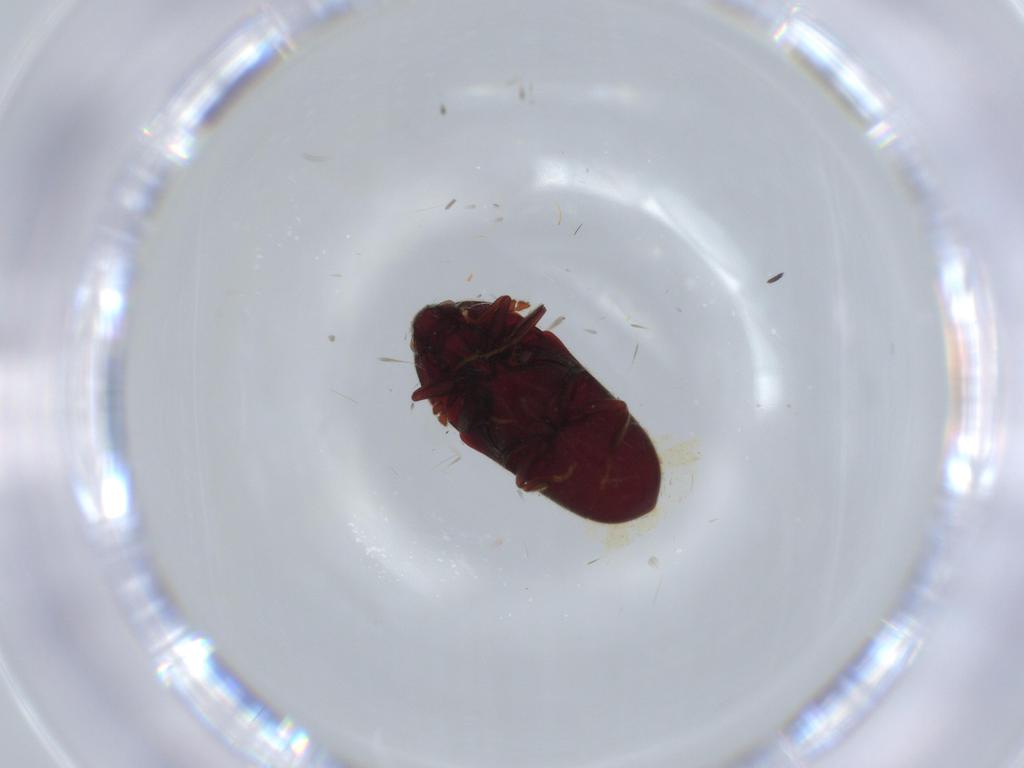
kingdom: Animalia
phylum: Arthropoda
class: Insecta
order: Coleoptera
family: Throscidae
